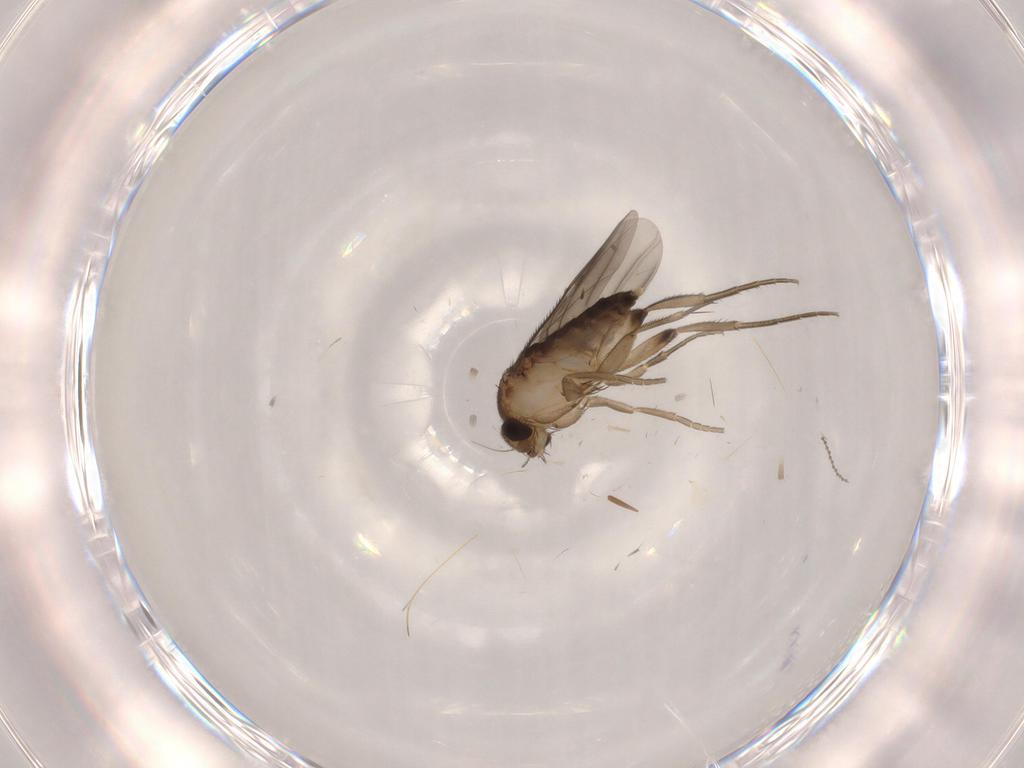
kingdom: Animalia
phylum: Arthropoda
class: Insecta
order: Diptera
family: Phoridae
